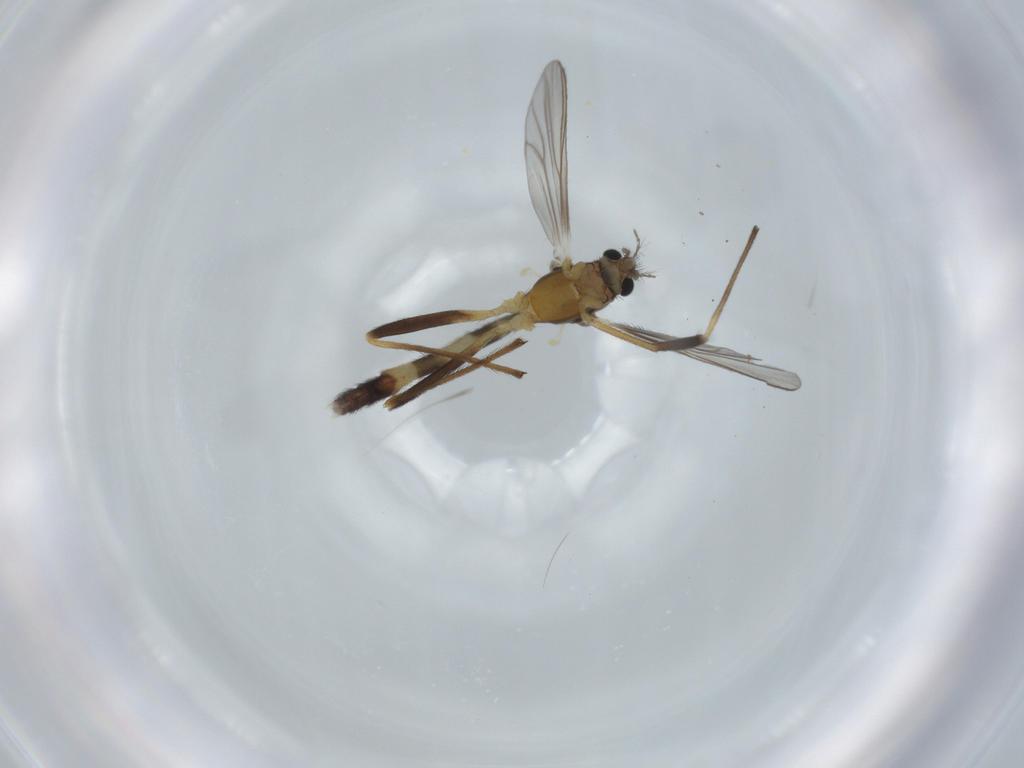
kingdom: Animalia
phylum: Arthropoda
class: Insecta
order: Diptera
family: Chironomidae
